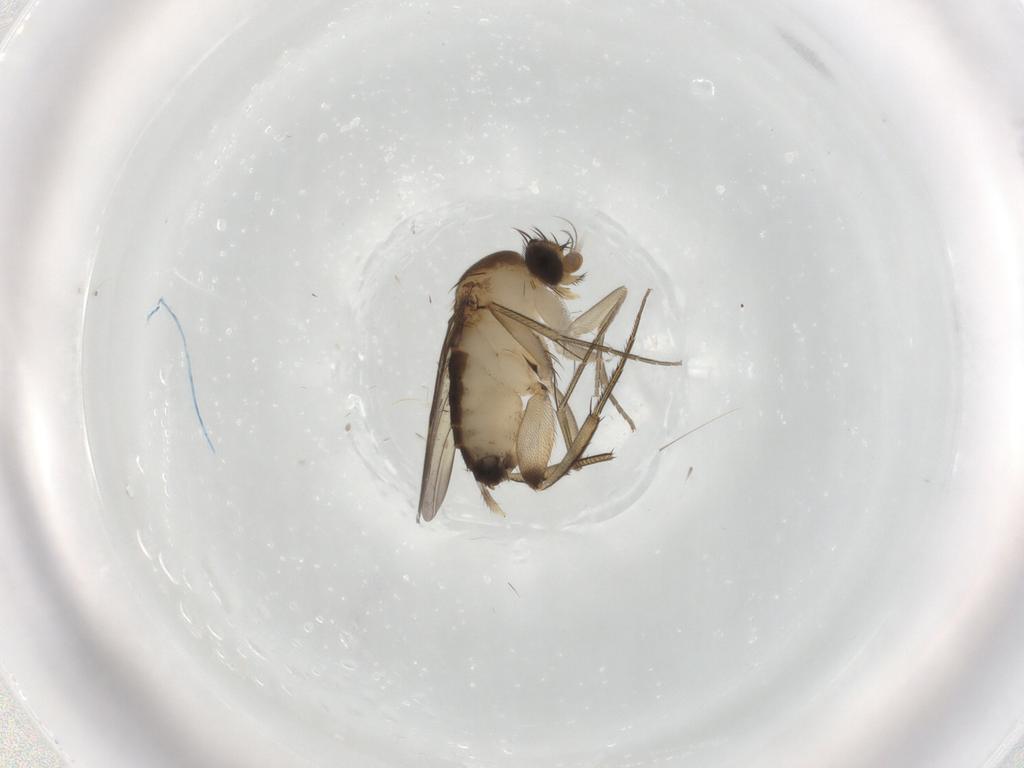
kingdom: Animalia
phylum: Arthropoda
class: Insecta
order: Diptera
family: Phoridae
